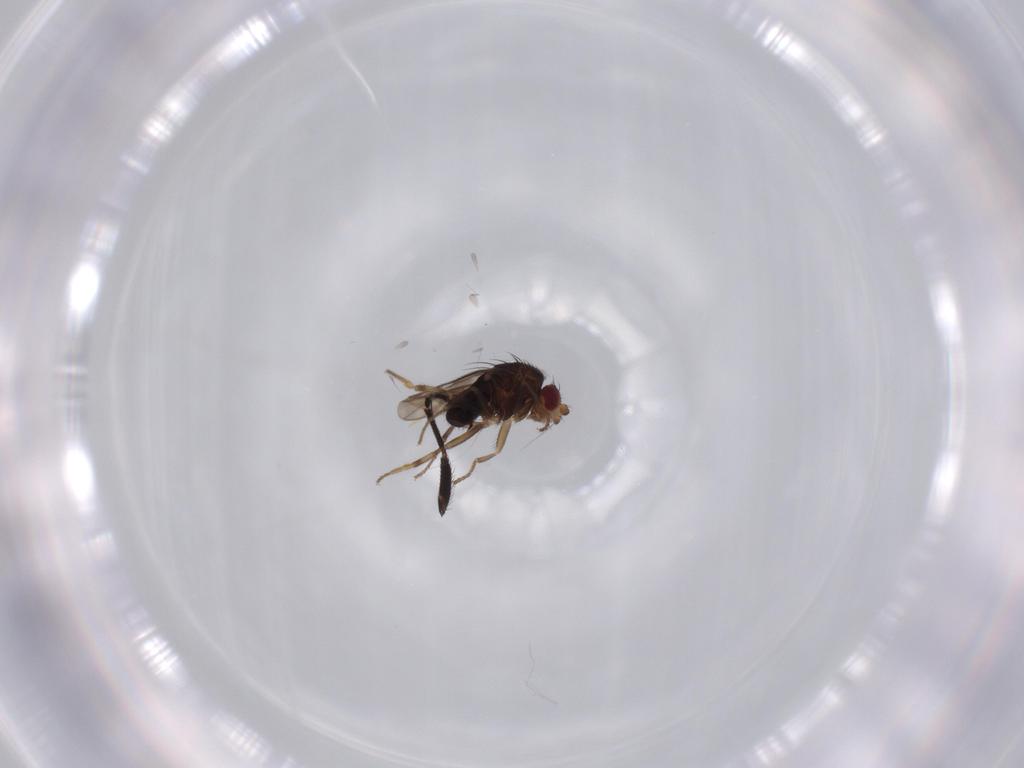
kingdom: Animalia
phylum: Arthropoda
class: Insecta
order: Diptera
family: Sphaeroceridae
